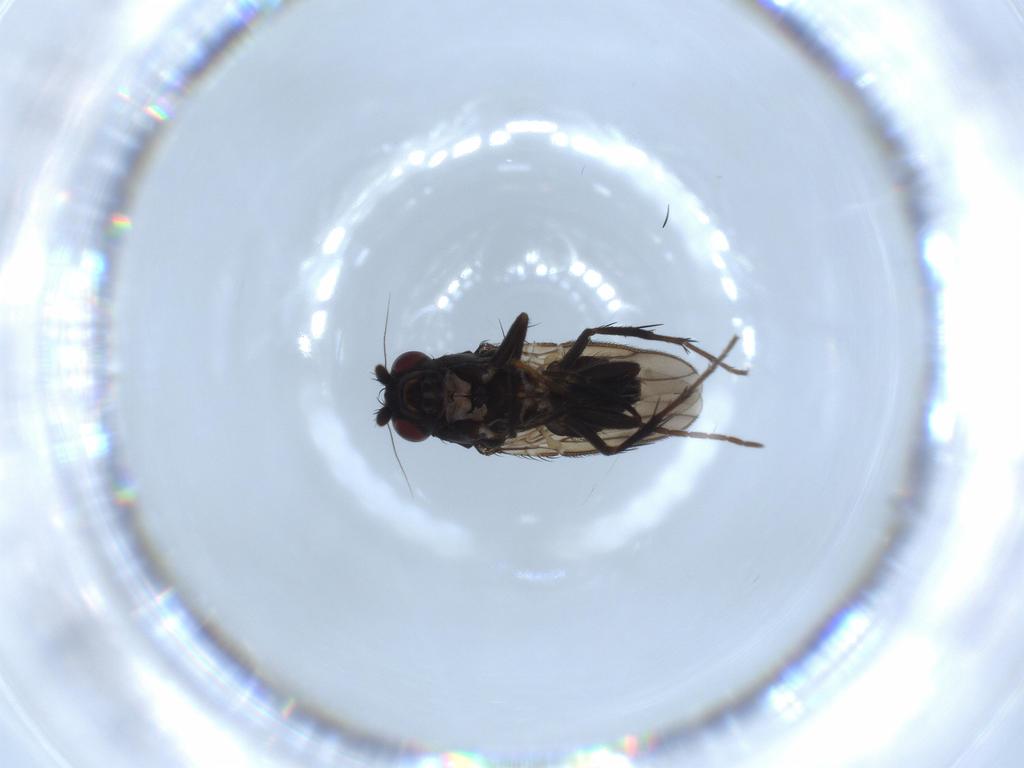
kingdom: Animalia
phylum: Arthropoda
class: Insecta
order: Diptera
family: Sphaeroceridae
